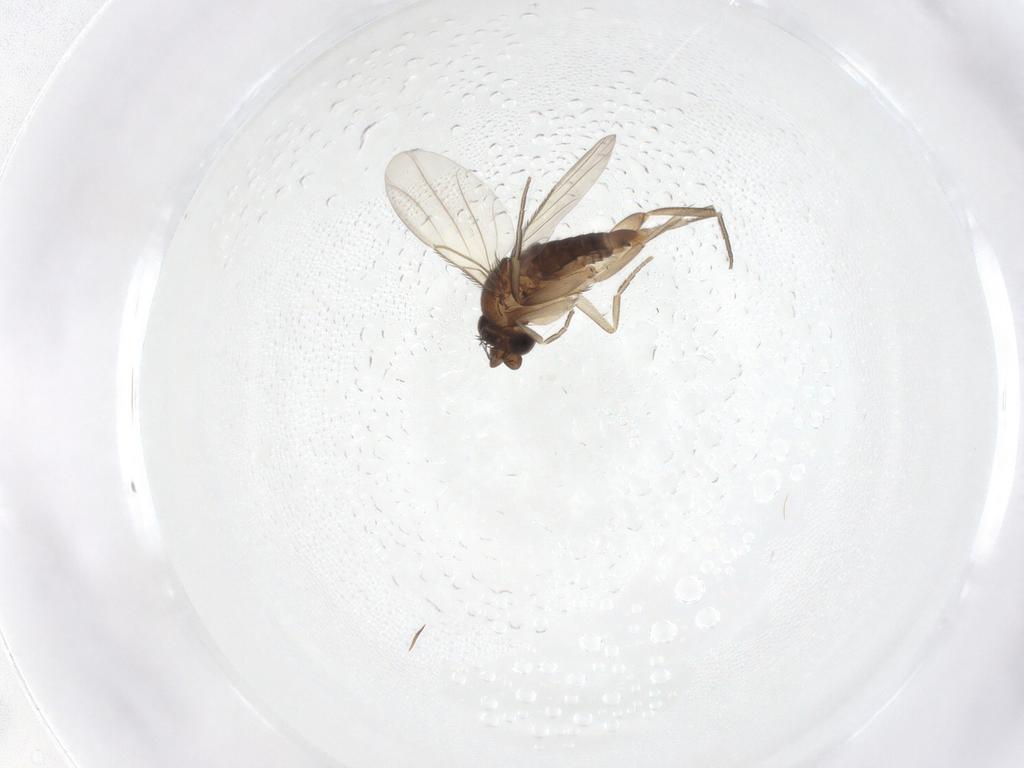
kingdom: Animalia
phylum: Arthropoda
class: Insecta
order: Diptera
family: Phoridae
